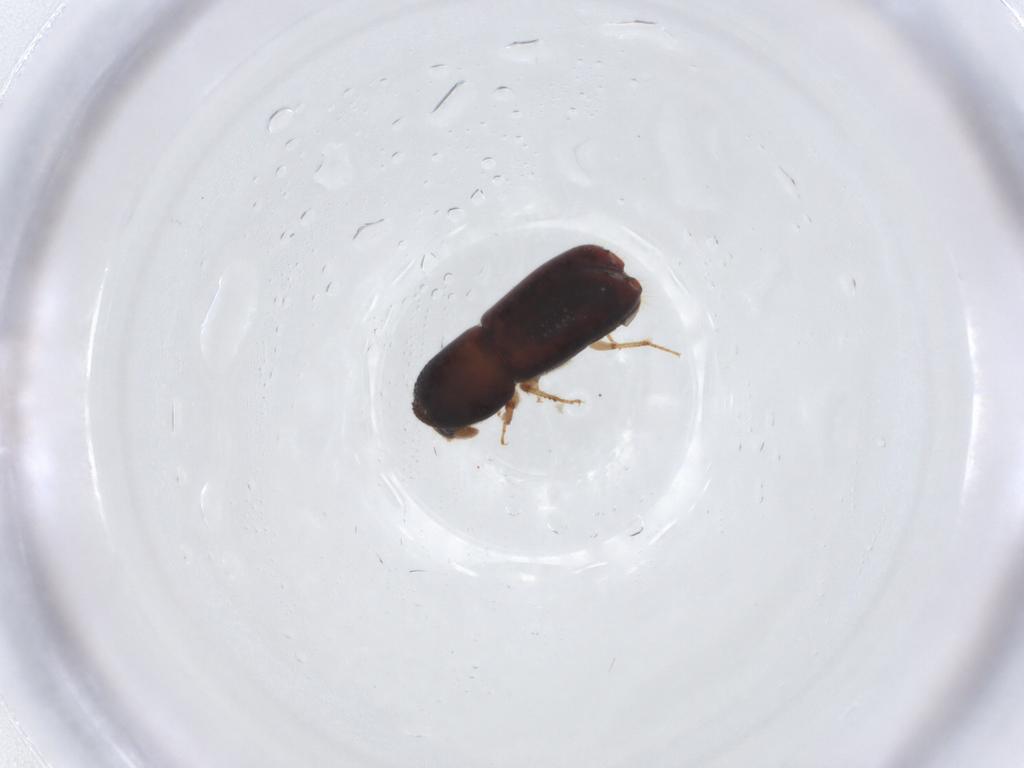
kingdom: Animalia
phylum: Arthropoda
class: Insecta
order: Coleoptera
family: Curculionidae
